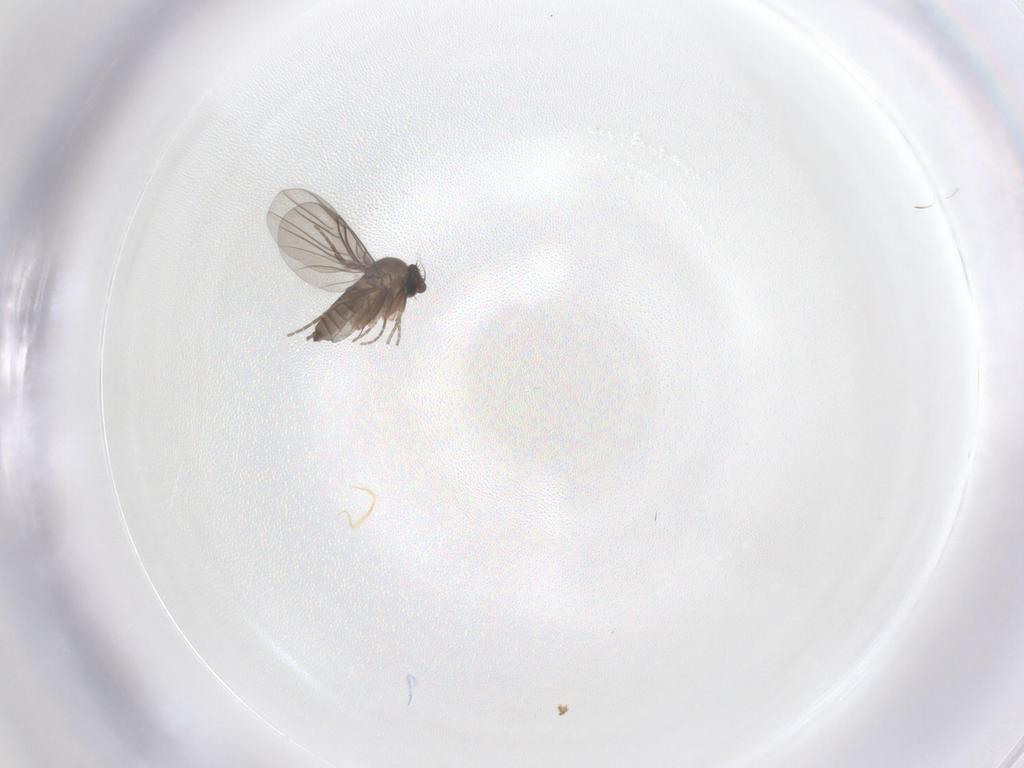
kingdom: Animalia
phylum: Arthropoda
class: Insecta
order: Diptera
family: Phoridae
